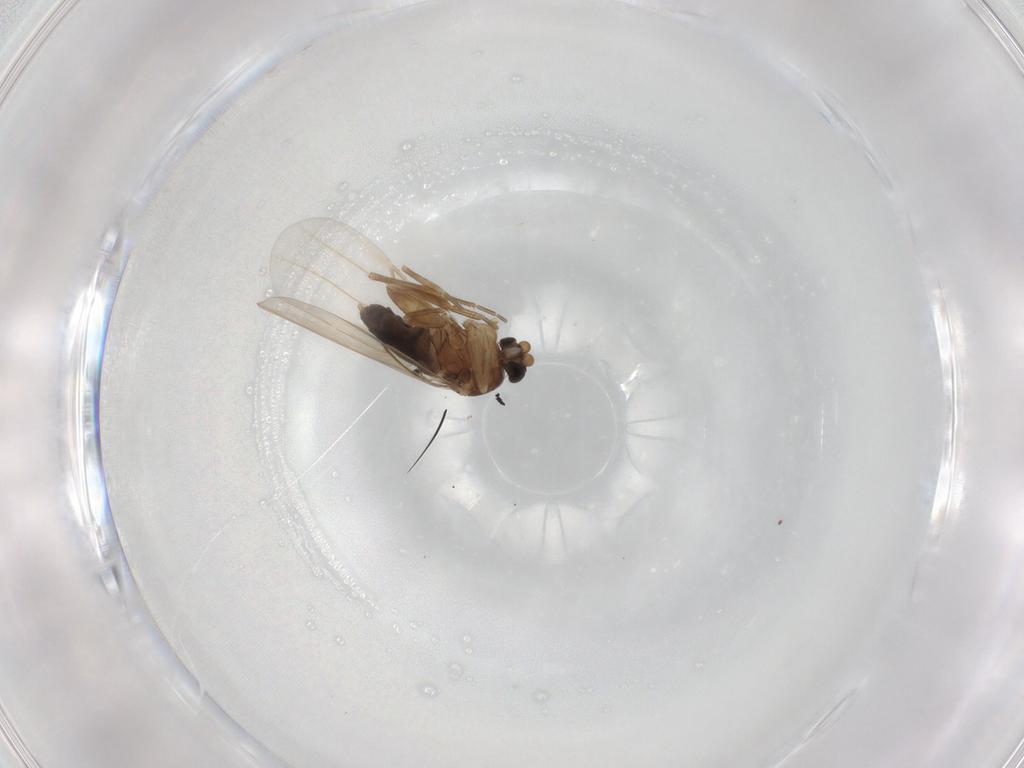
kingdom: Animalia
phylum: Arthropoda
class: Insecta
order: Diptera
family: Phoridae
